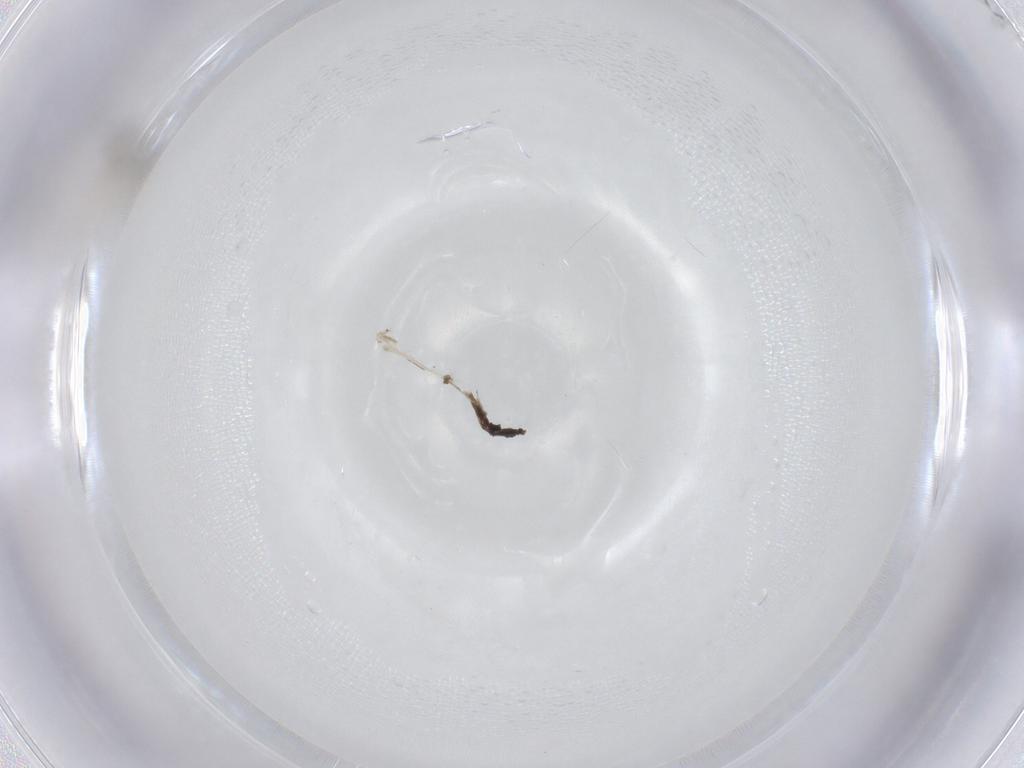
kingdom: Animalia
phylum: Arthropoda
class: Insecta
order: Diptera
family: Cecidomyiidae
